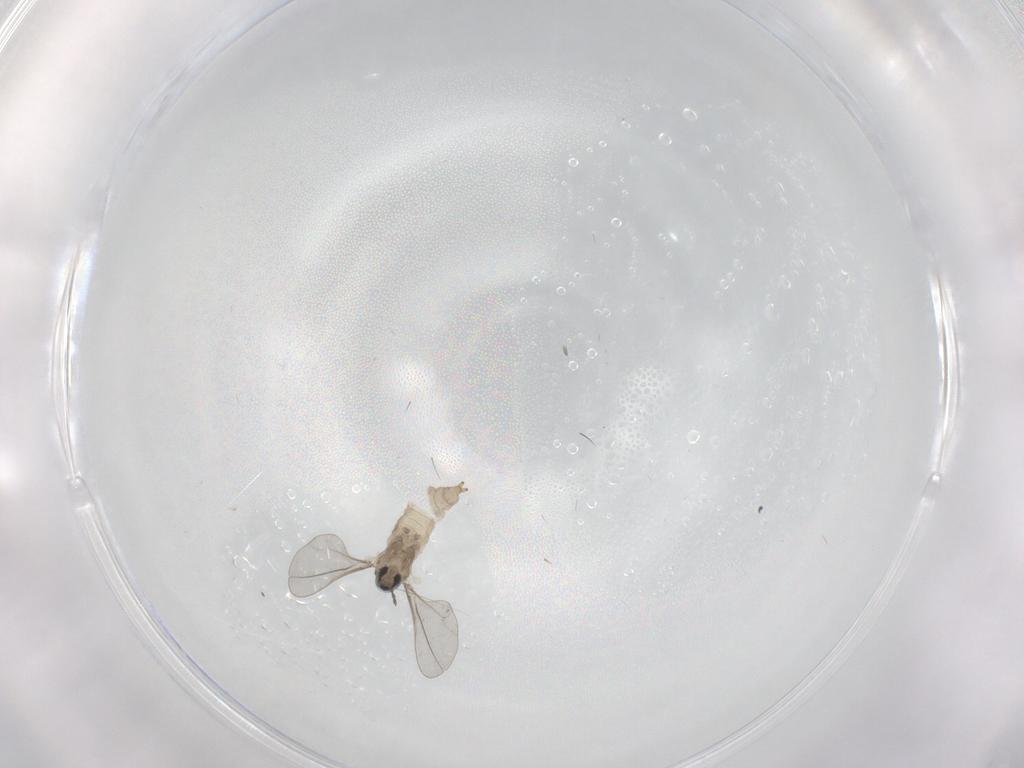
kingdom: Animalia
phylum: Arthropoda
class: Insecta
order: Diptera
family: Cecidomyiidae
